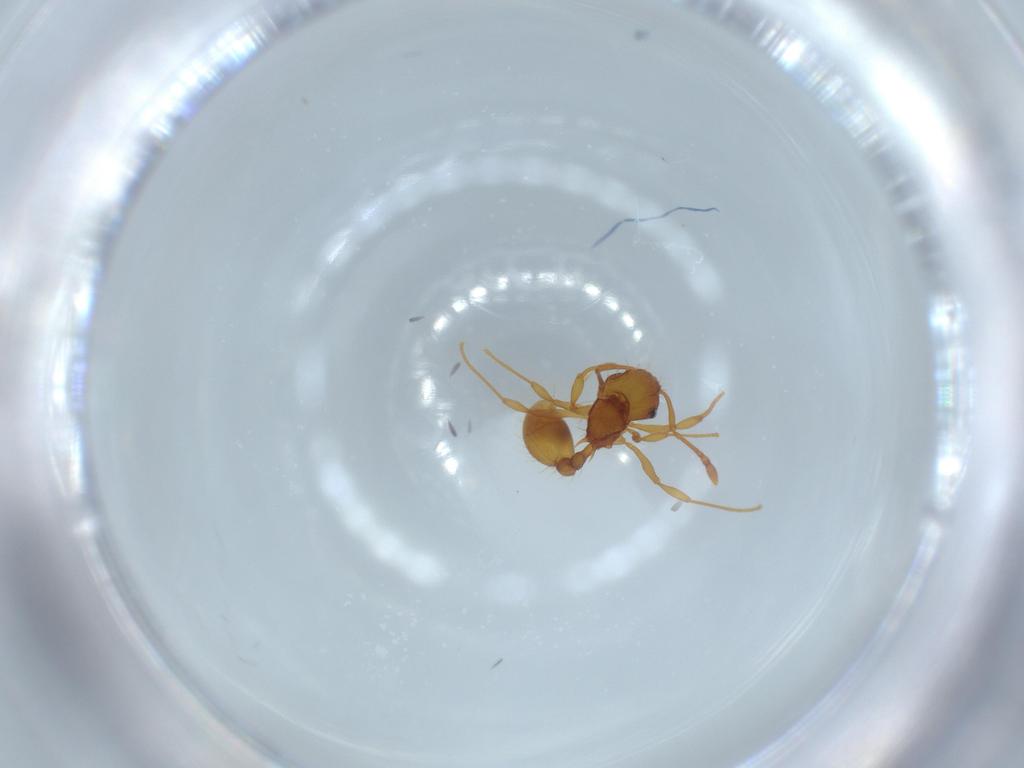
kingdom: Animalia
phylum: Arthropoda
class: Insecta
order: Hymenoptera
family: Formicidae
